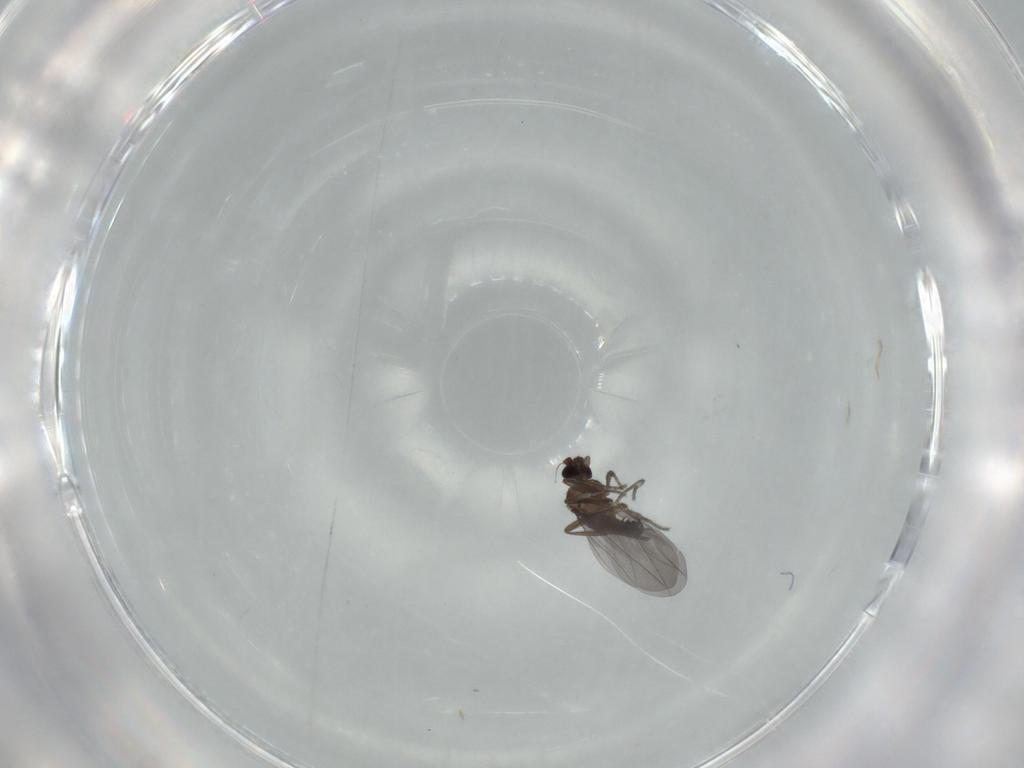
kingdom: Animalia
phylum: Arthropoda
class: Insecta
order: Diptera
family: Phoridae
